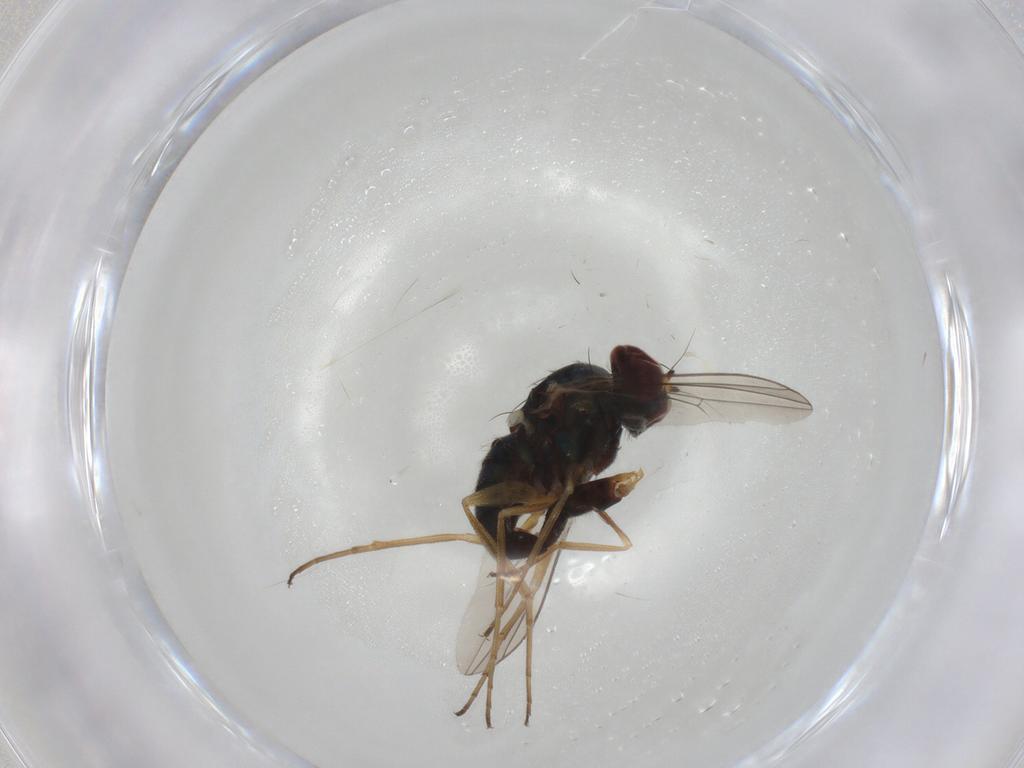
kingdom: Animalia
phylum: Arthropoda
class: Insecta
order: Diptera
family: Dolichopodidae
